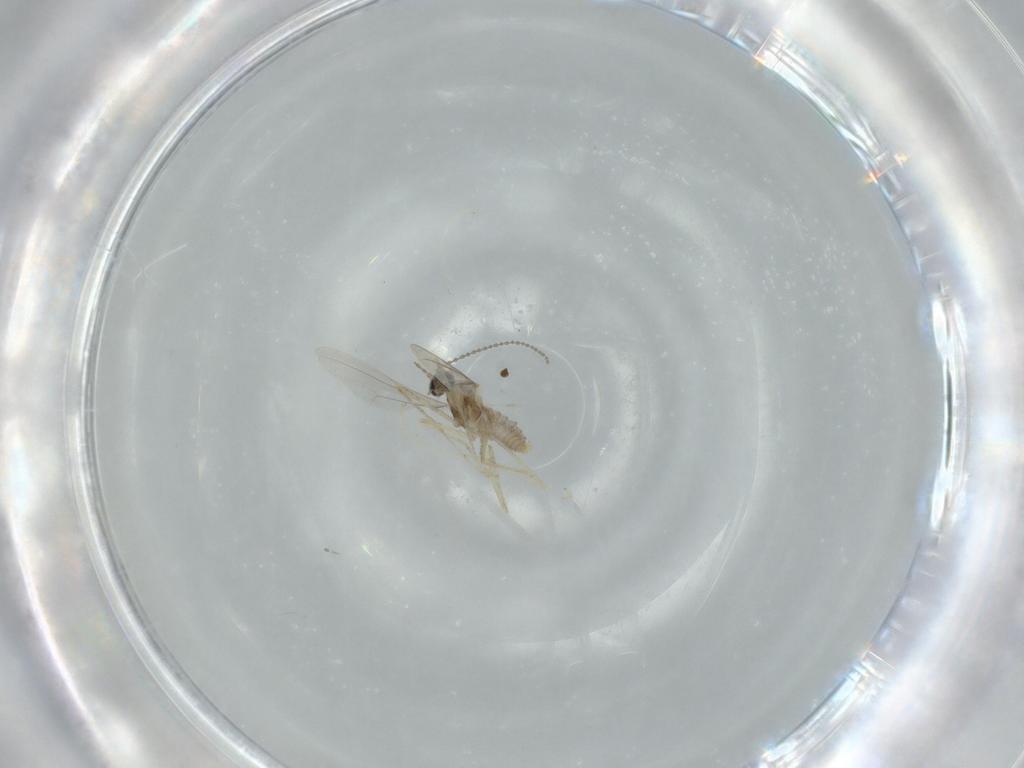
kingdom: Animalia
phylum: Arthropoda
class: Insecta
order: Diptera
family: Cecidomyiidae
